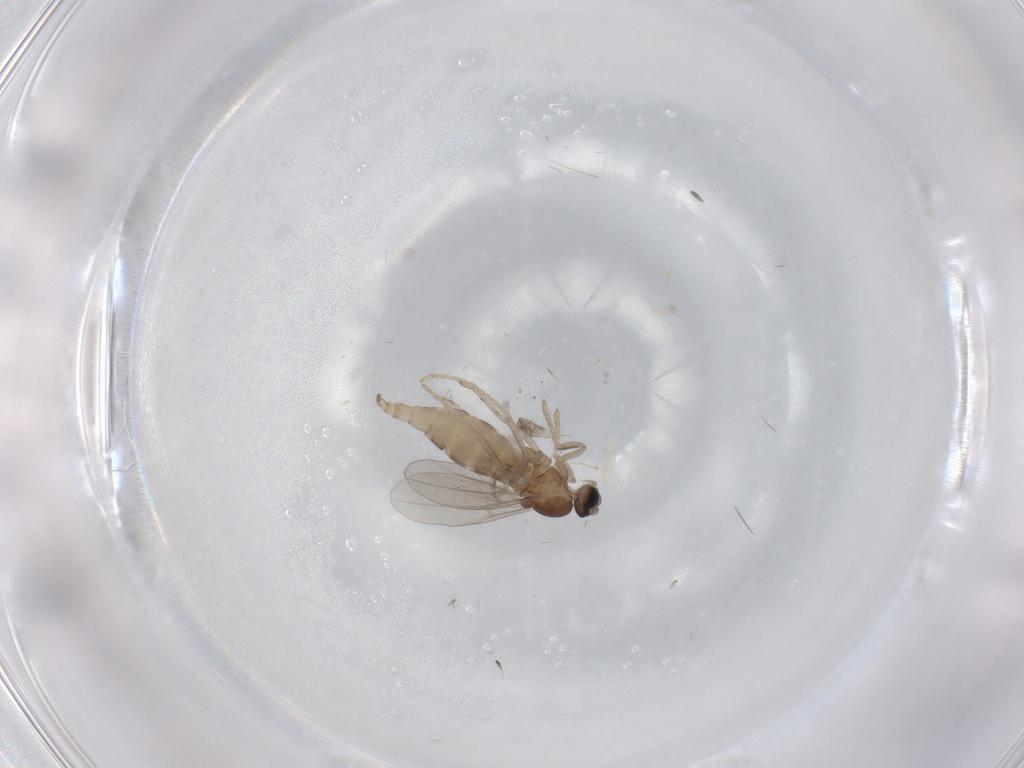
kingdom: Animalia
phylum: Arthropoda
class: Insecta
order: Diptera
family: Cecidomyiidae
